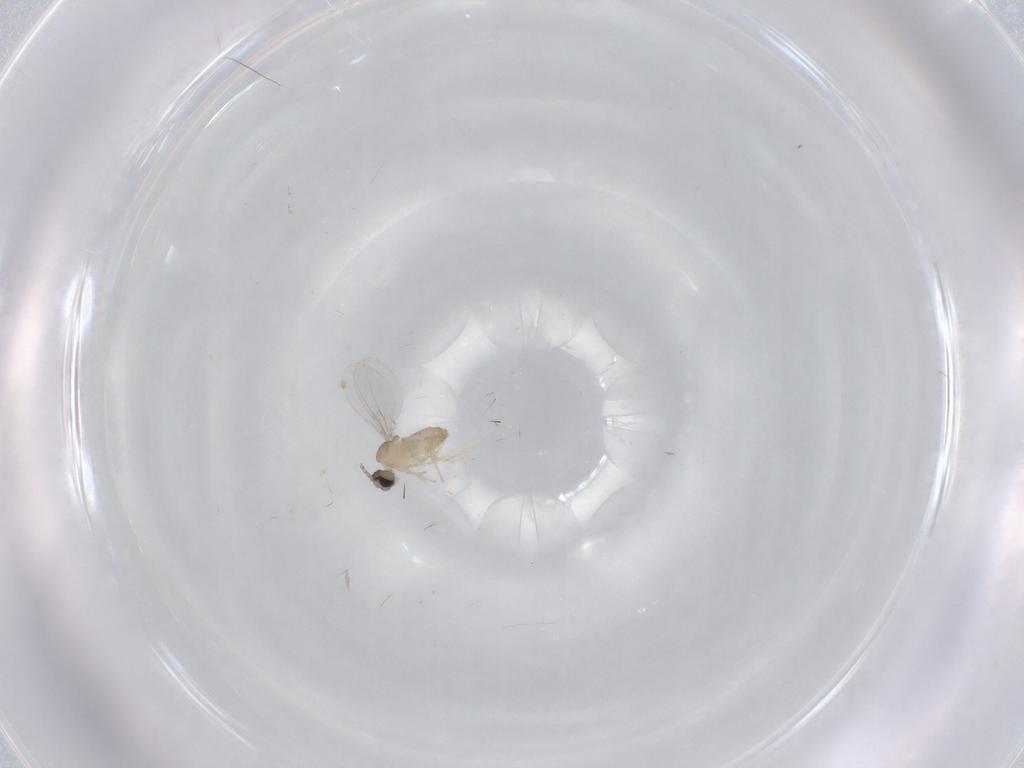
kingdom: Animalia
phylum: Arthropoda
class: Insecta
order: Diptera
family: Cecidomyiidae
